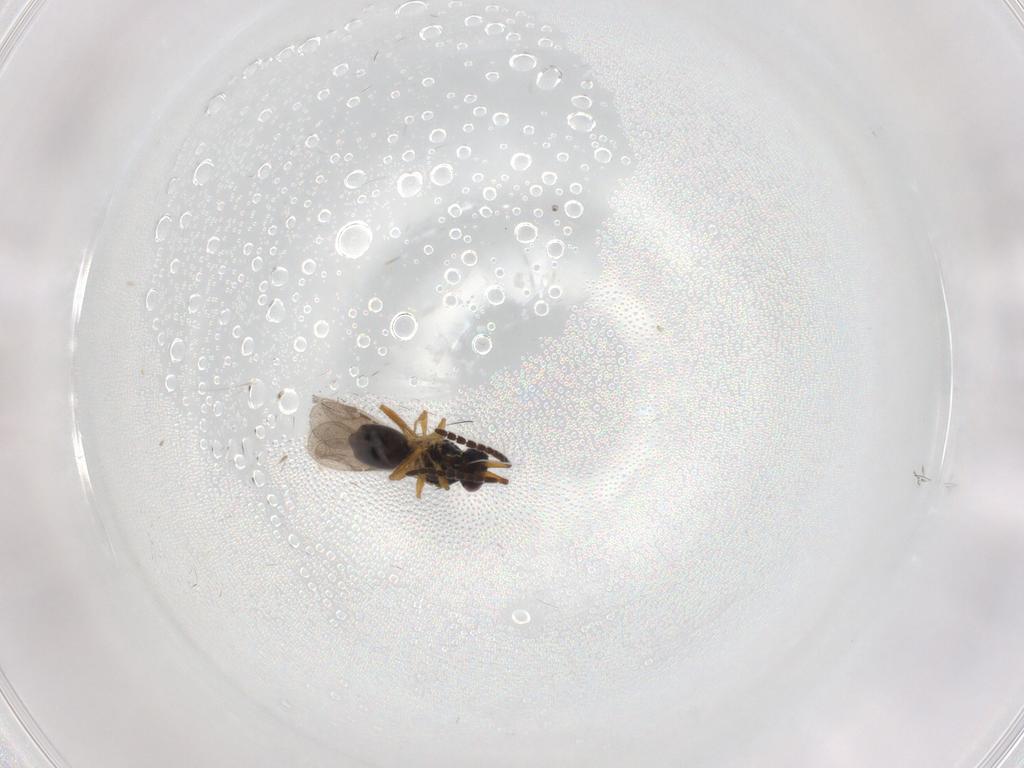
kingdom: Animalia
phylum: Arthropoda
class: Insecta
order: Hymenoptera
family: Formicidae
